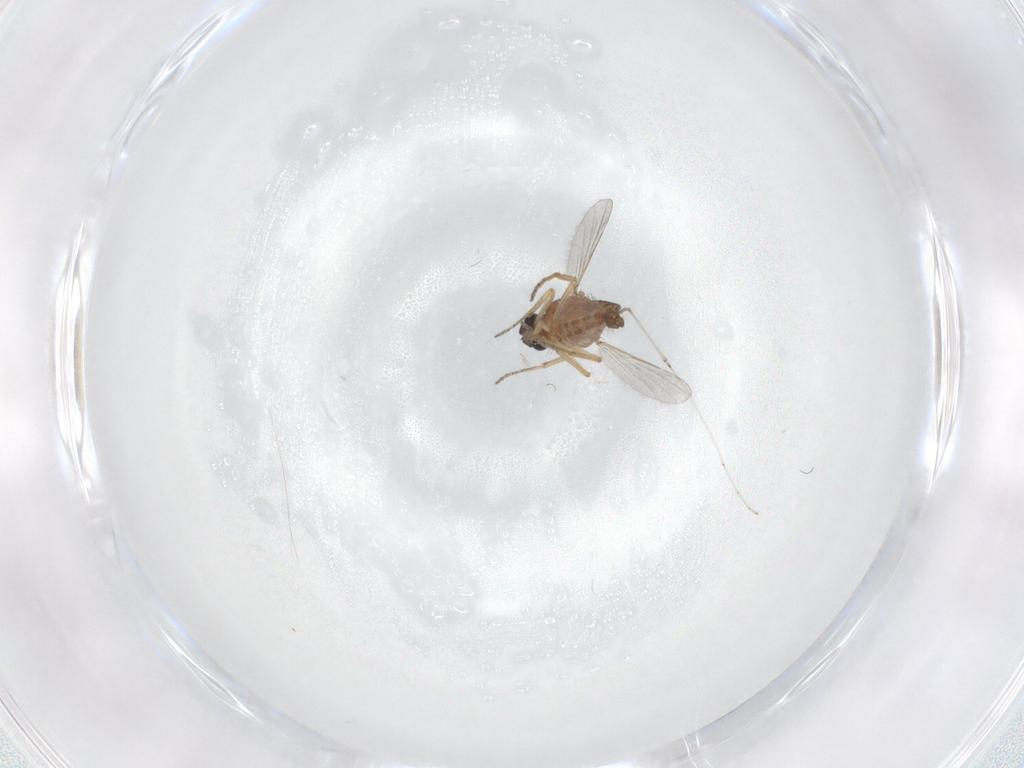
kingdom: Animalia
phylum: Arthropoda
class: Insecta
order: Diptera
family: Ceratopogonidae
